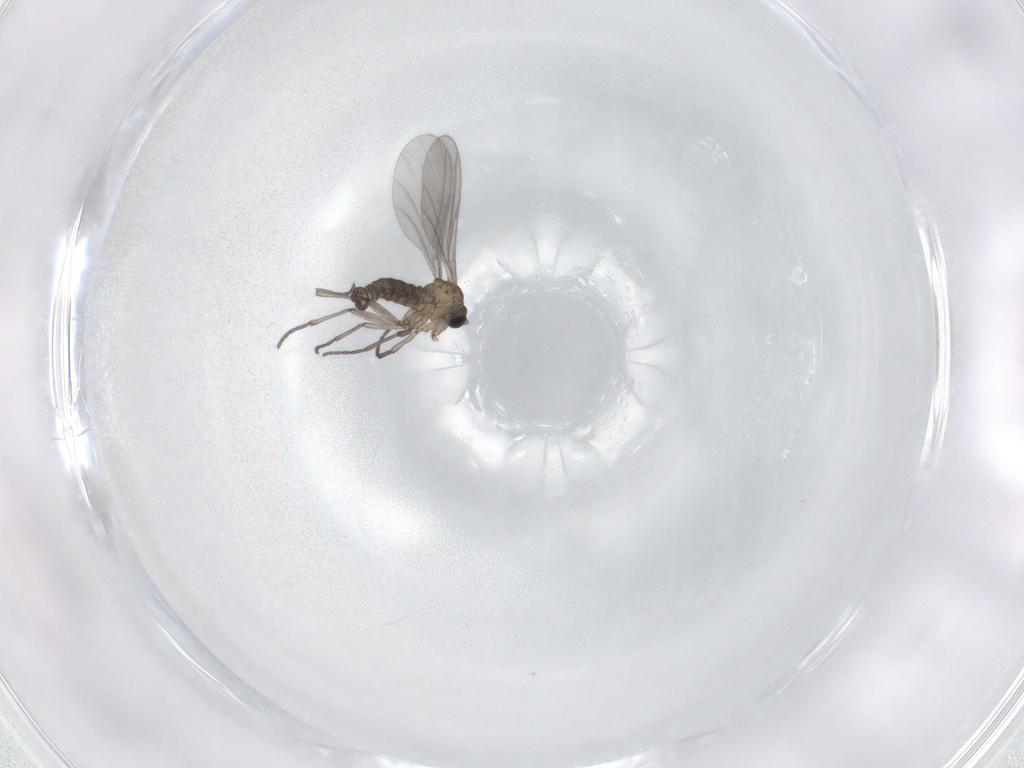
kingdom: Animalia
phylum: Arthropoda
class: Insecta
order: Diptera
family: Sciaridae
